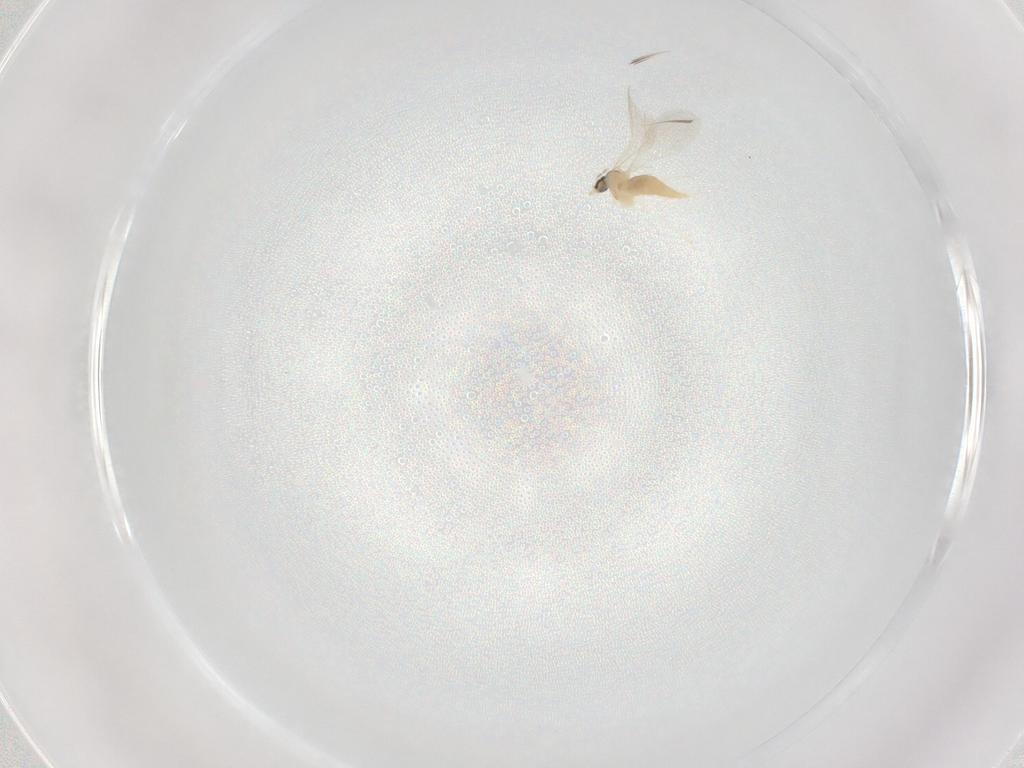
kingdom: Animalia
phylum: Arthropoda
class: Insecta
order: Diptera
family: Cecidomyiidae
